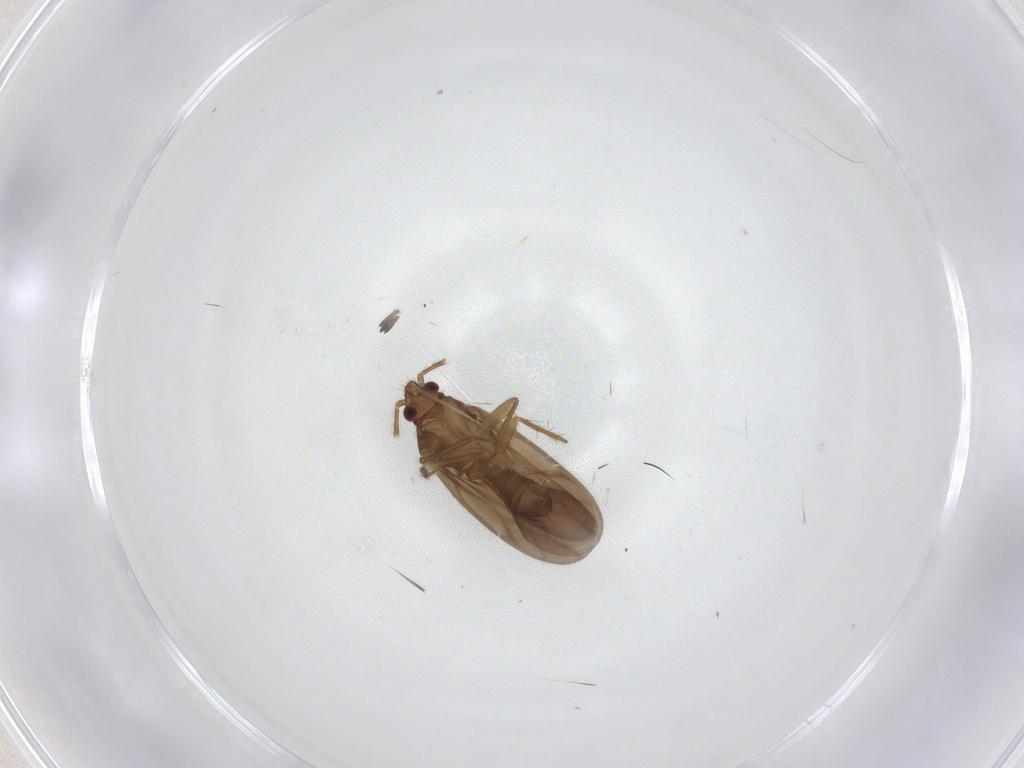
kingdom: Animalia
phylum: Arthropoda
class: Insecta
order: Hemiptera
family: Ceratocombidae
